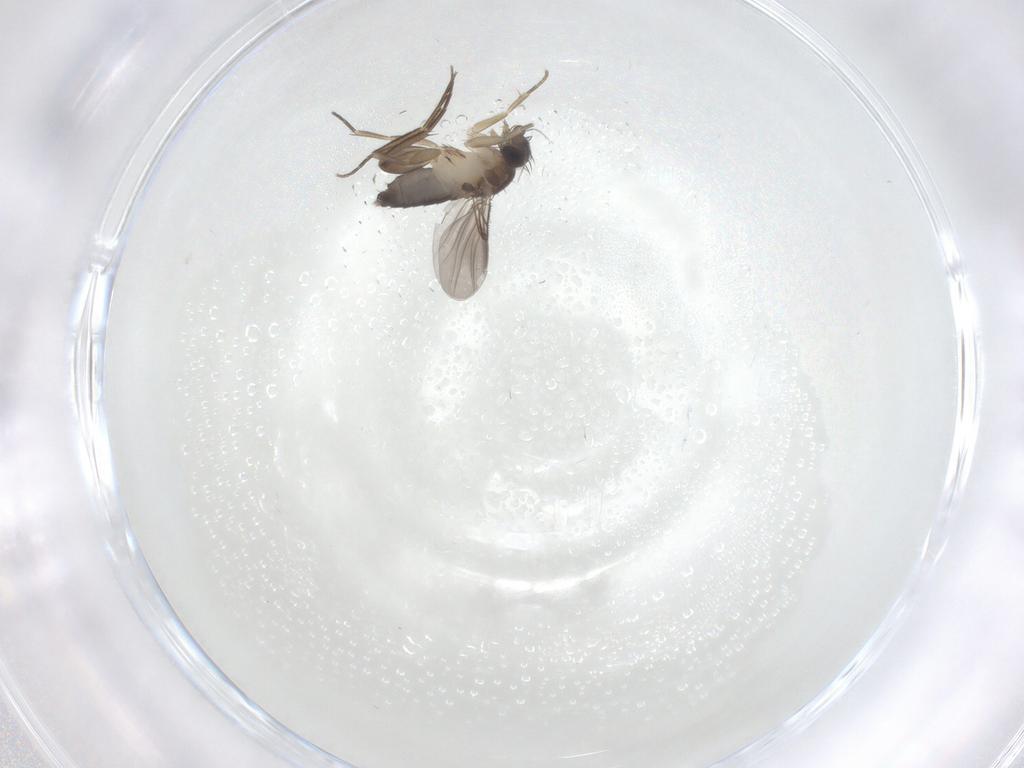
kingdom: Animalia
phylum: Arthropoda
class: Insecta
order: Diptera
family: Phoridae
